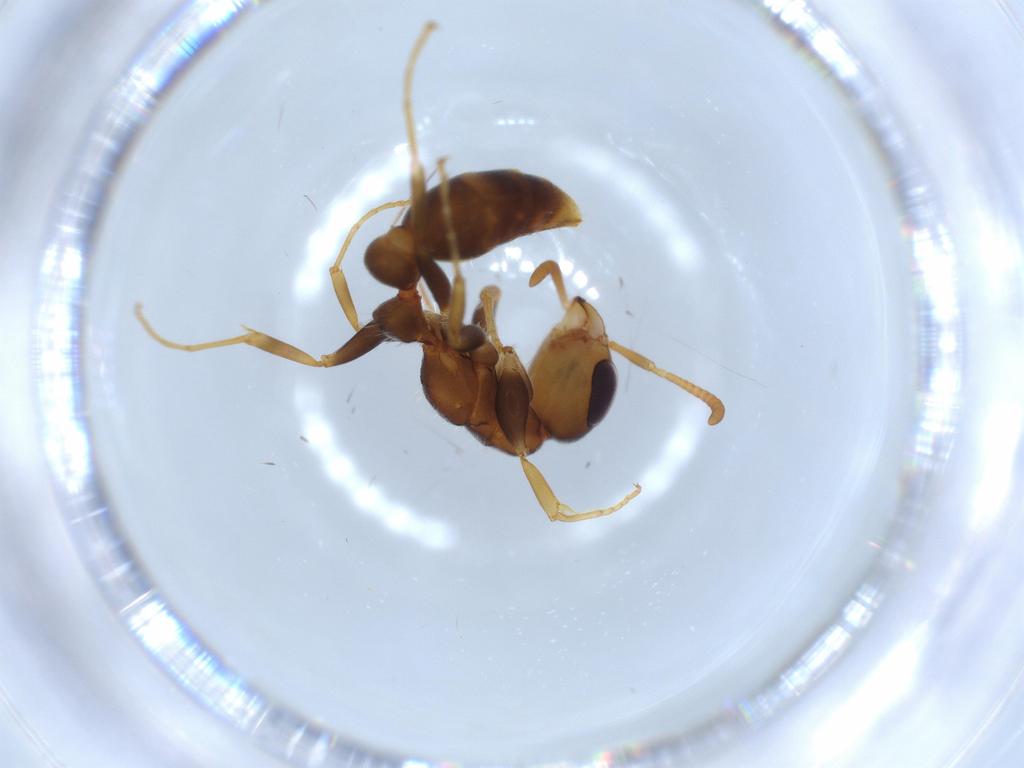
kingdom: Animalia
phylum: Arthropoda
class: Insecta
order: Hymenoptera
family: Formicidae
